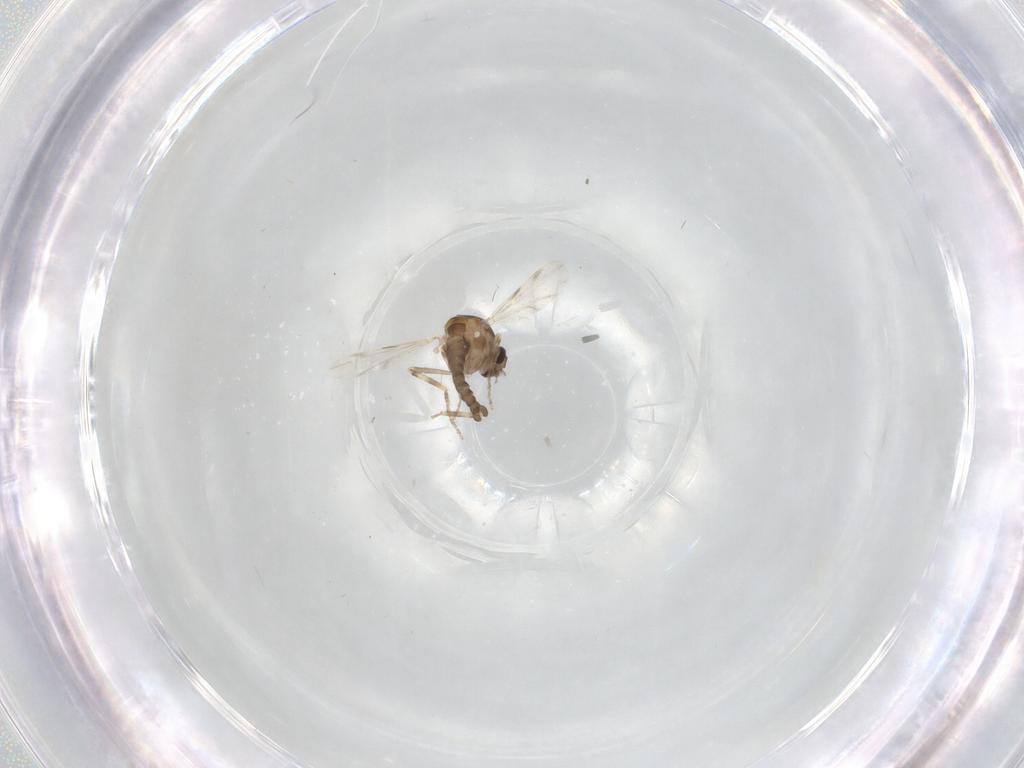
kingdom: Animalia
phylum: Arthropoda
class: Insecta
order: Diptera
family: Ceratopogonidae
